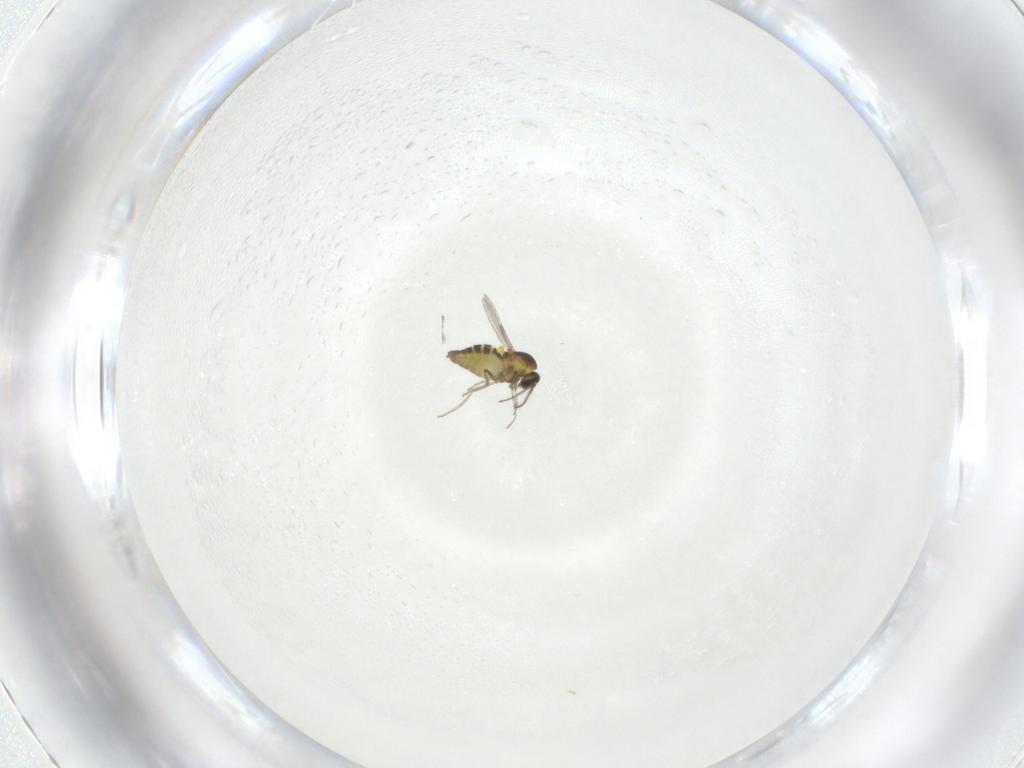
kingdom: Animalia
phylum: Arthropoda
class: Insecta
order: Diptera
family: Ceratopogonidae
